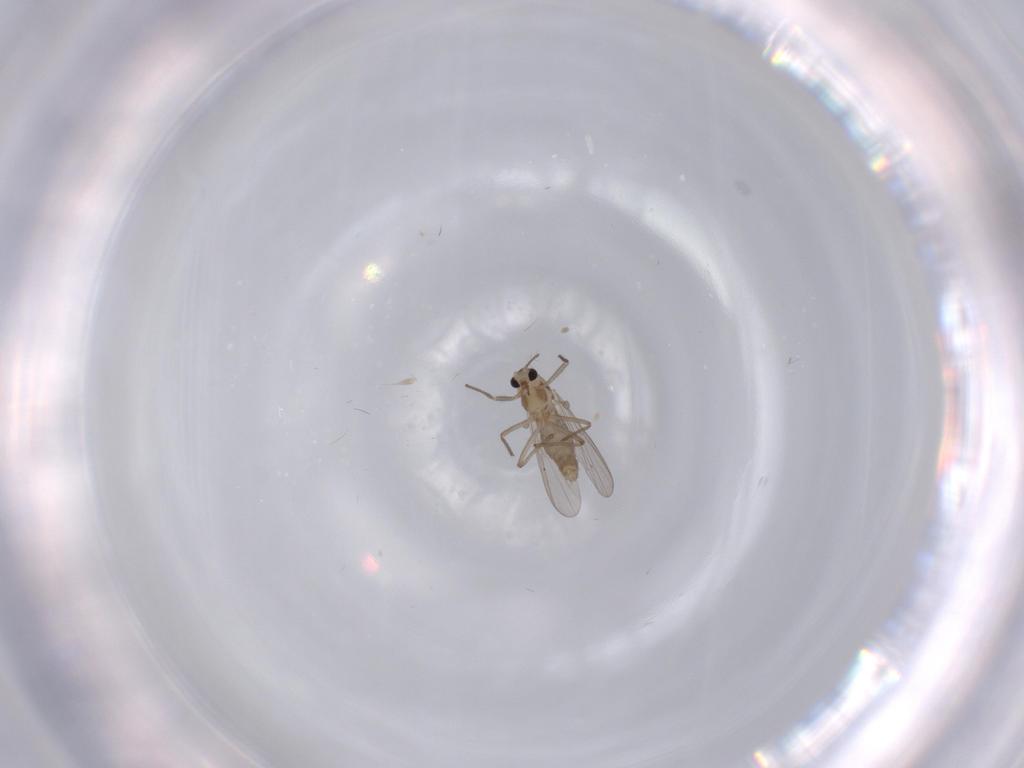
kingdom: Animalia
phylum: Arthropoda
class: Insecta
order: Diptera
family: Chironomidae
